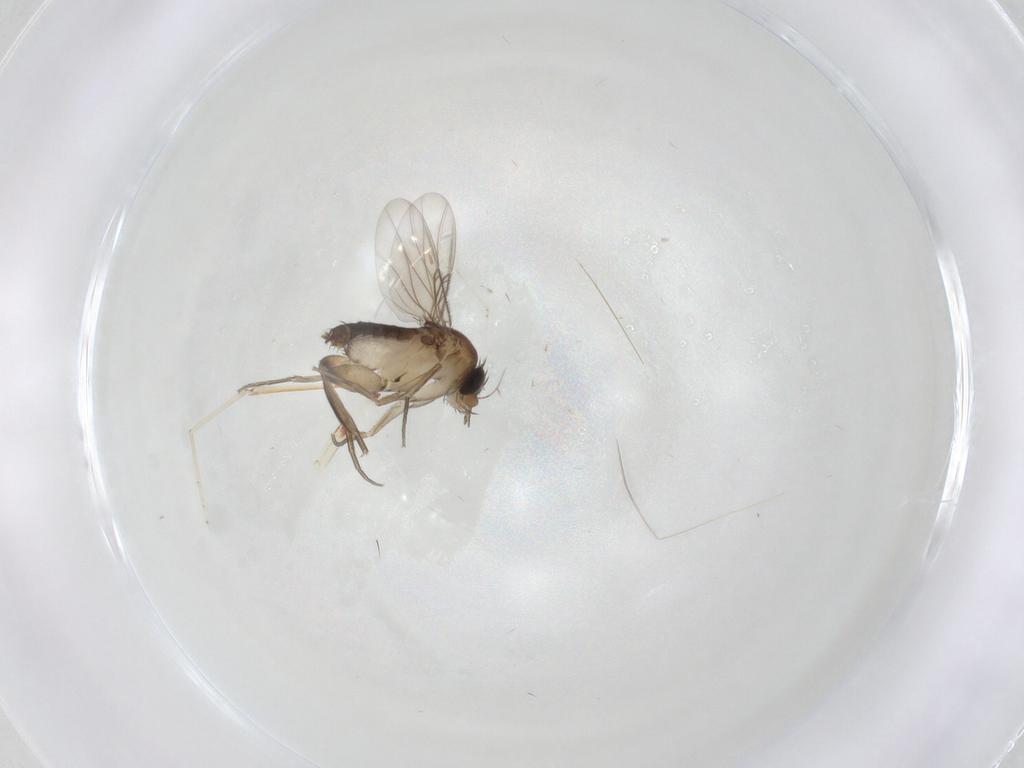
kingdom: Animalia
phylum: Arthropoda
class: Insecta
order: Diptera
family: Phoridae
